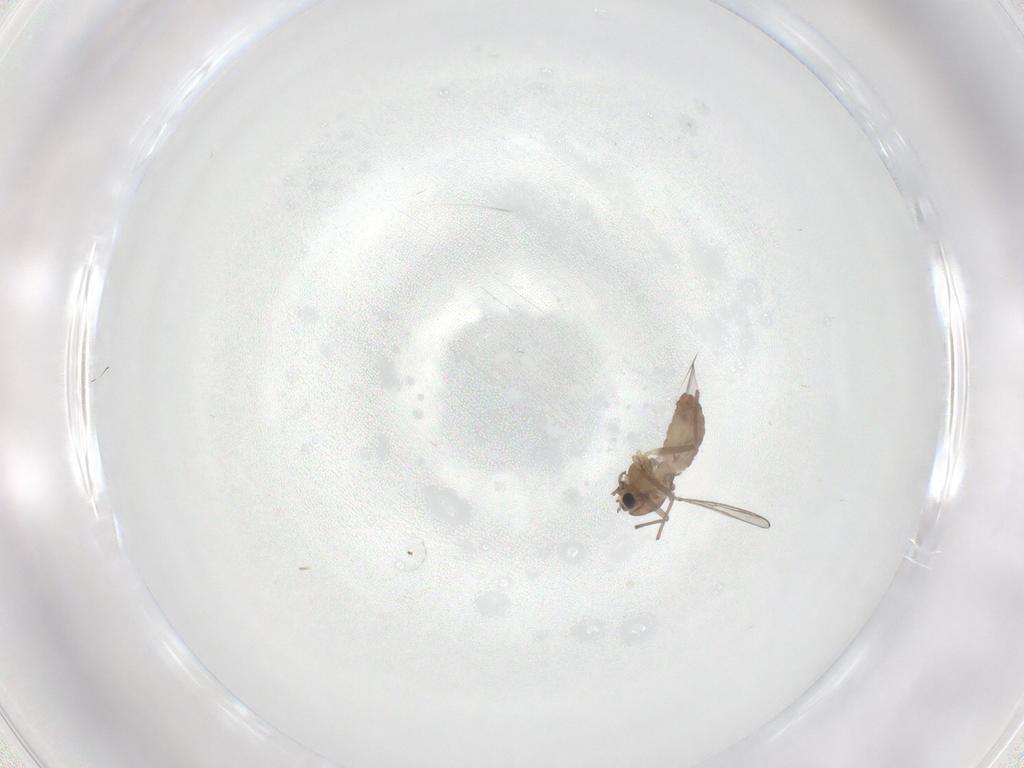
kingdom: Animalia
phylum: Arthropoda
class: Insecta
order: Diptera
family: Chironomidae
